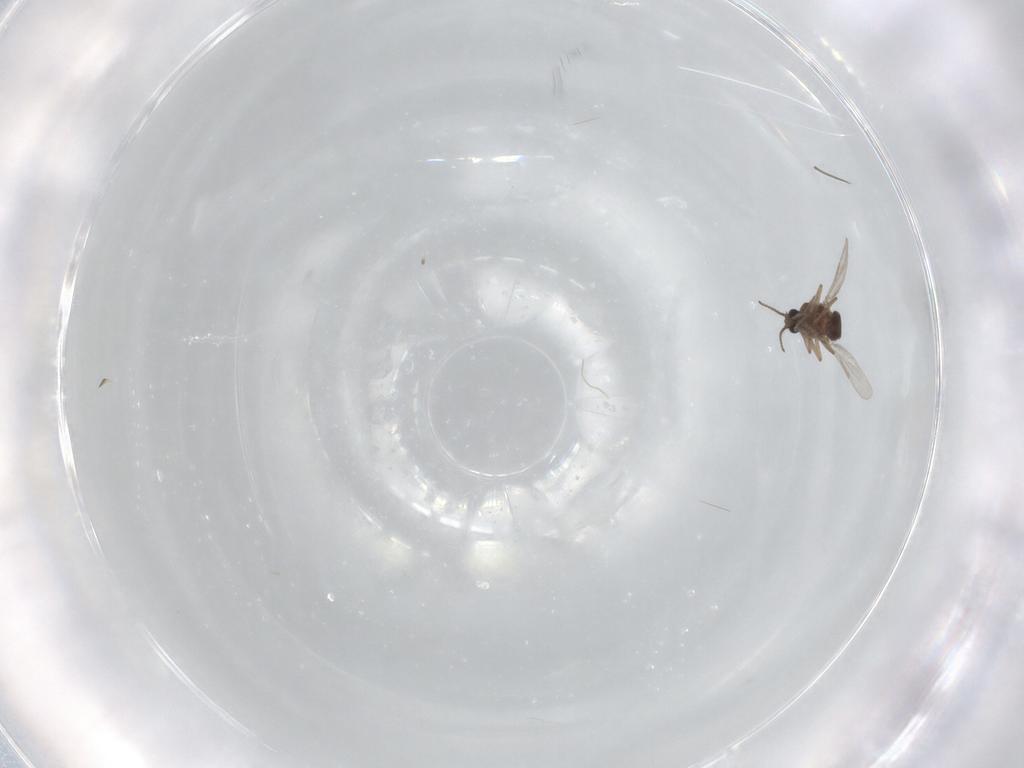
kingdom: Animalia
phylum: Arthropoda
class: Insecta
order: Diptera
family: Ceratopogonidae
